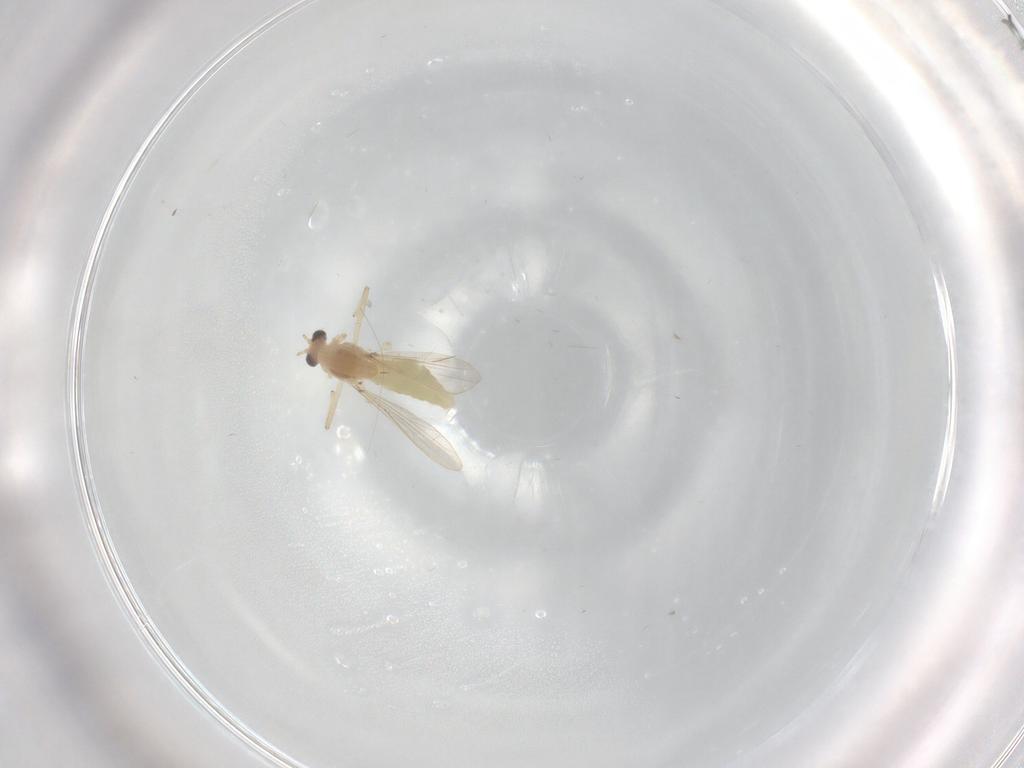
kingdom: Animalia
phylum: Arthropoda
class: Insecta
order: Diptera
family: Chironomidae
